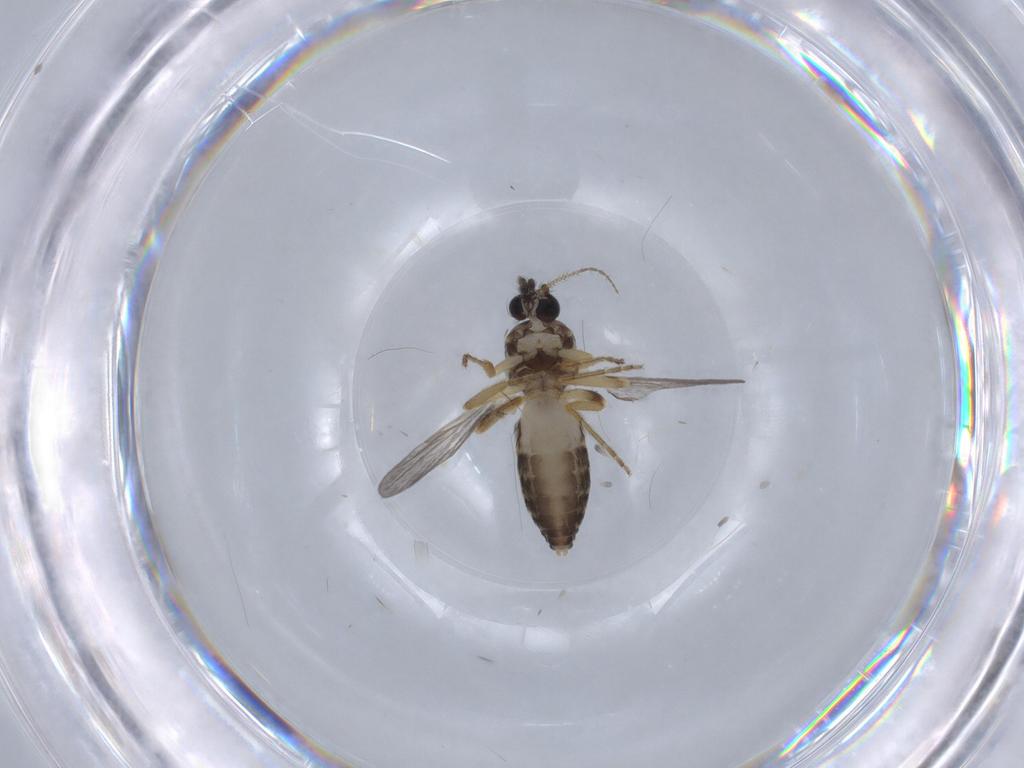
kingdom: Animalia
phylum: Arthropoda
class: Insecta
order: Diptera
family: Ceratopogonidae
